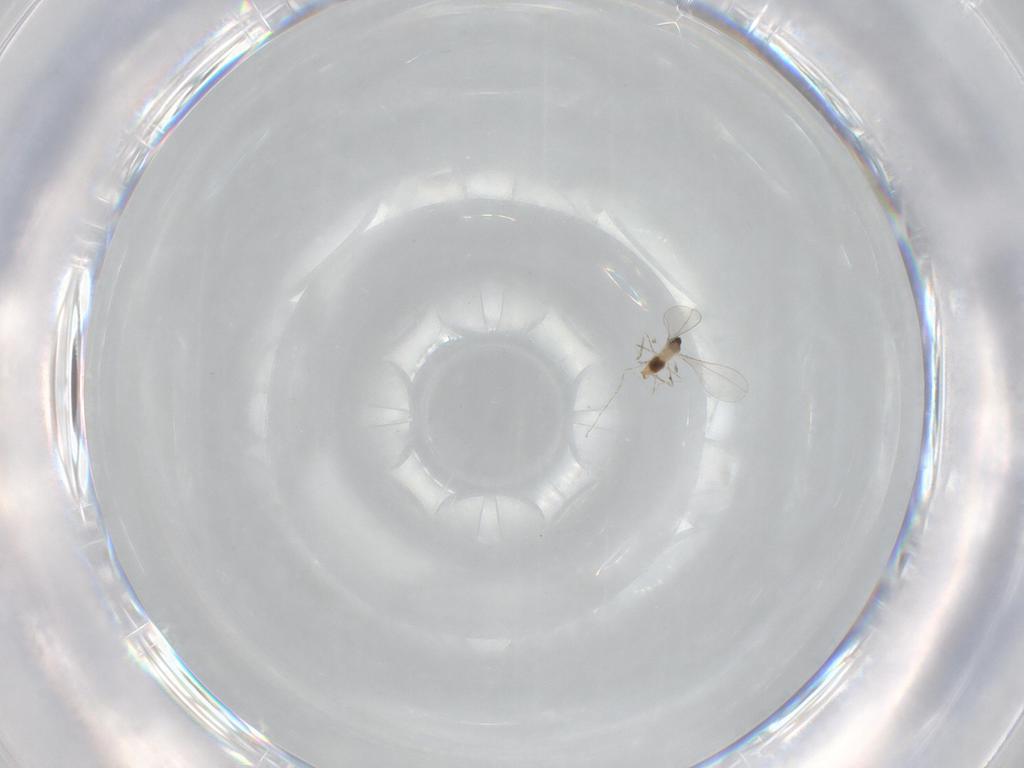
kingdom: Animalia
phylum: Arthropoda
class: Insecta
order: Diptera
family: Cecidomyiidae
